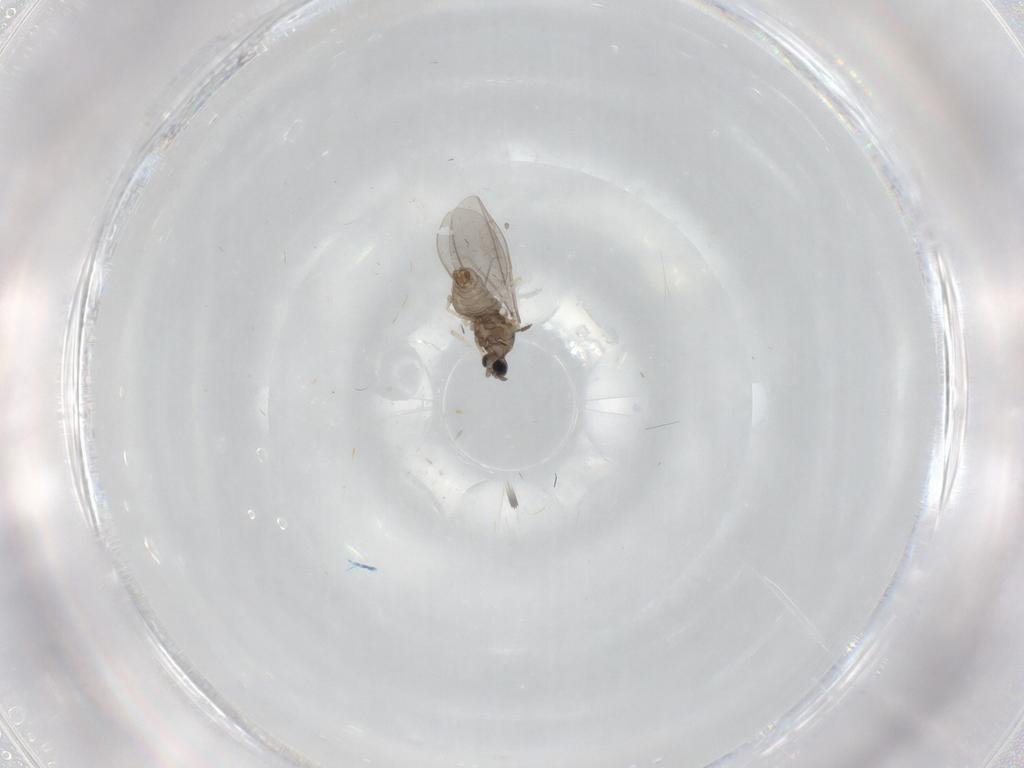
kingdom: Animalia
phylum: Arthropoda
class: Insecta
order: Diptera
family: Chironomidae
